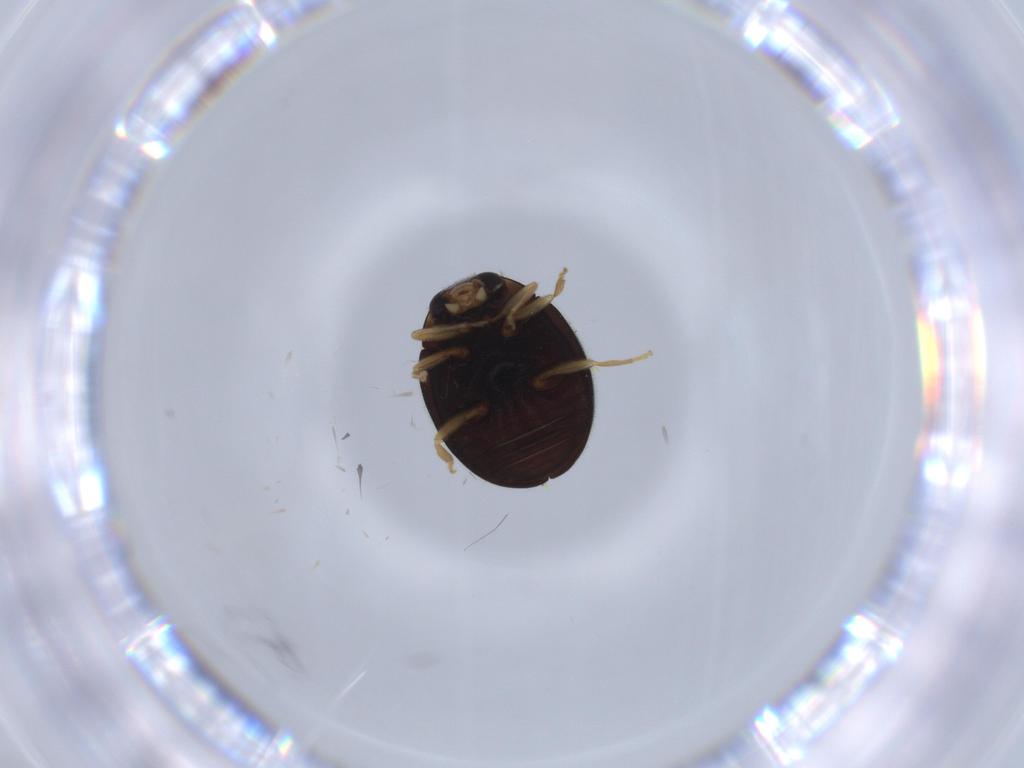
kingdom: Animalia
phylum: Arthropoda
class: Insecta
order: Coleoptera
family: Coccinellidae
